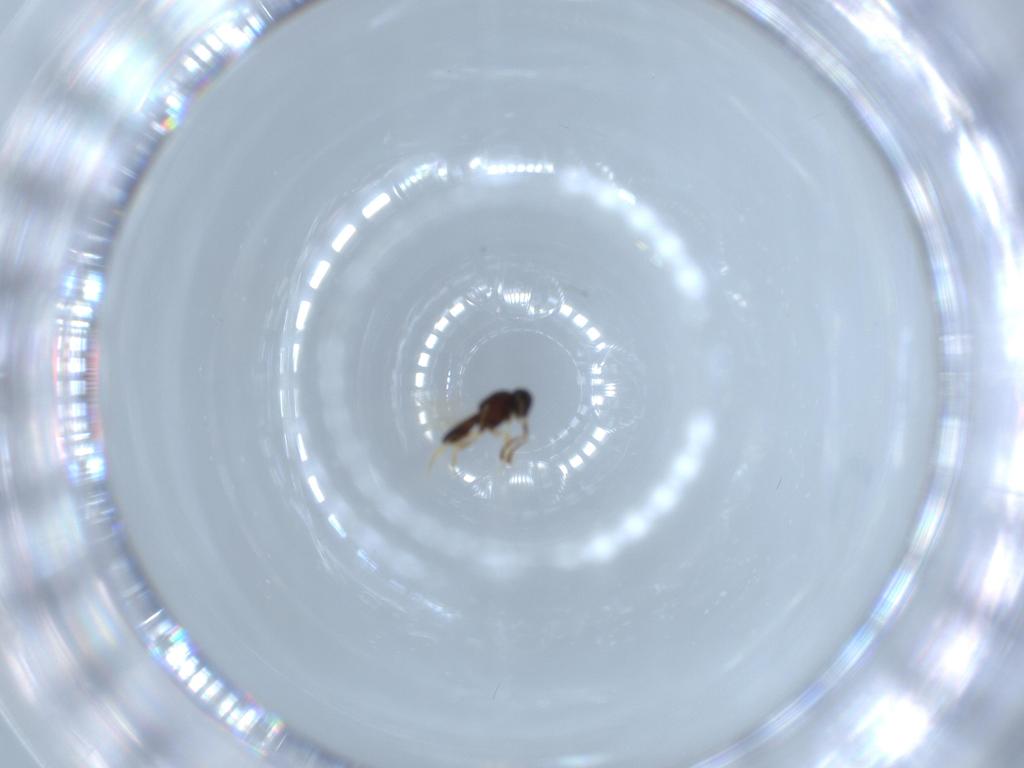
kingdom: Animalia
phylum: Arthropoda
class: Insecta
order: Hymenoptera
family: Scelionidae
